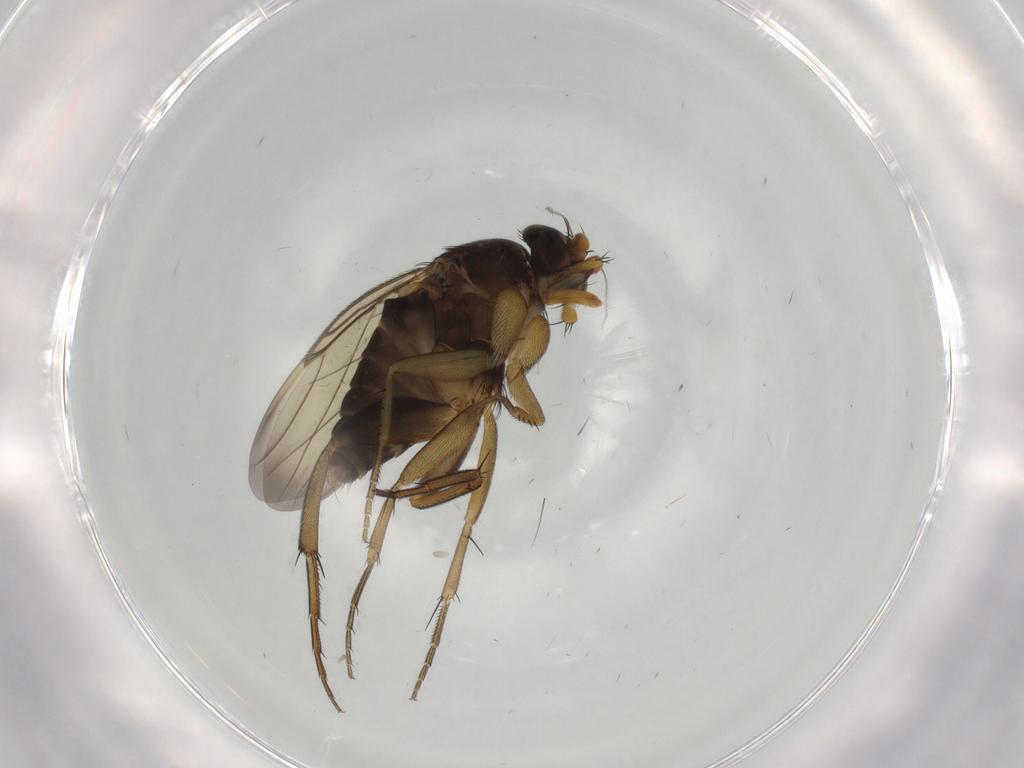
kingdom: Animalia
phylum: Arthropoda
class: Insecta
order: Diptera
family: Phoridae
